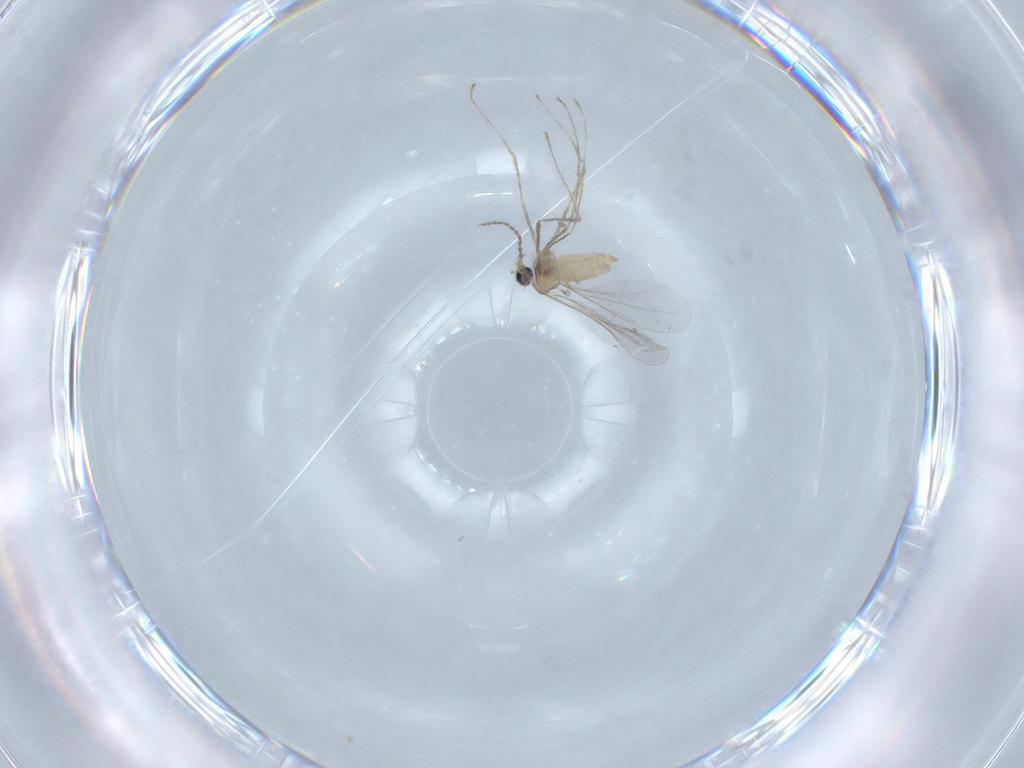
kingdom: Animalia
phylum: Arthropoda
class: Insecta
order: Diptera
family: Cecidomyiidae
